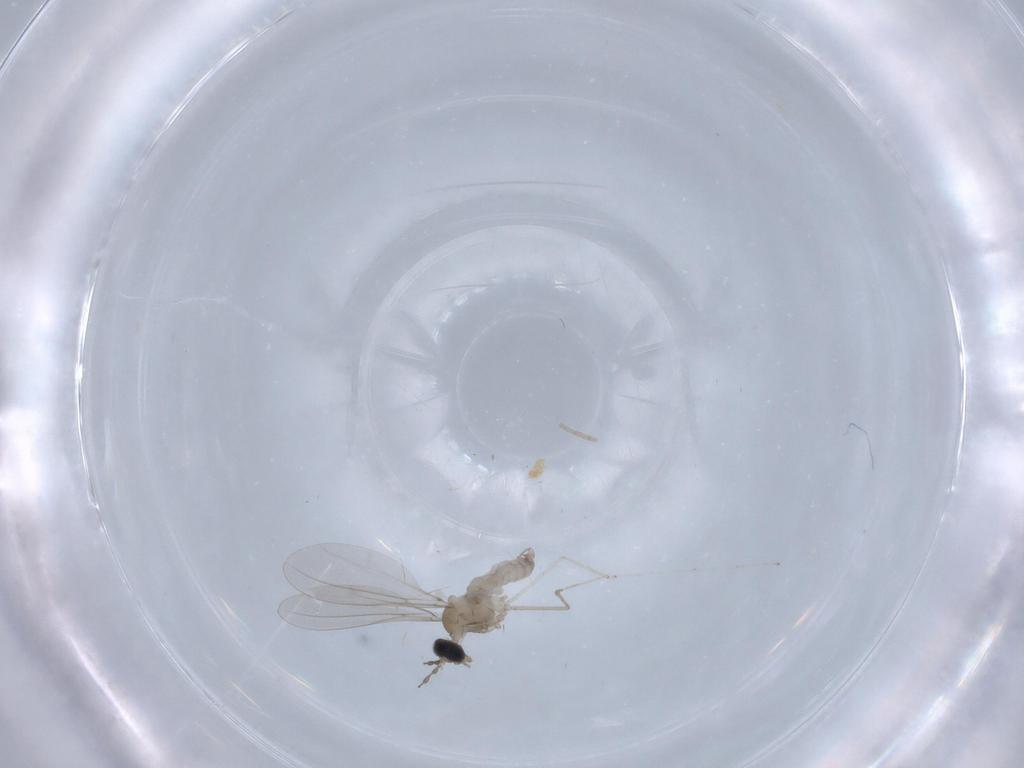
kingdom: Animalia
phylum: Arthropoda
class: Insecta
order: Diptera
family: Cecidomyiidae
